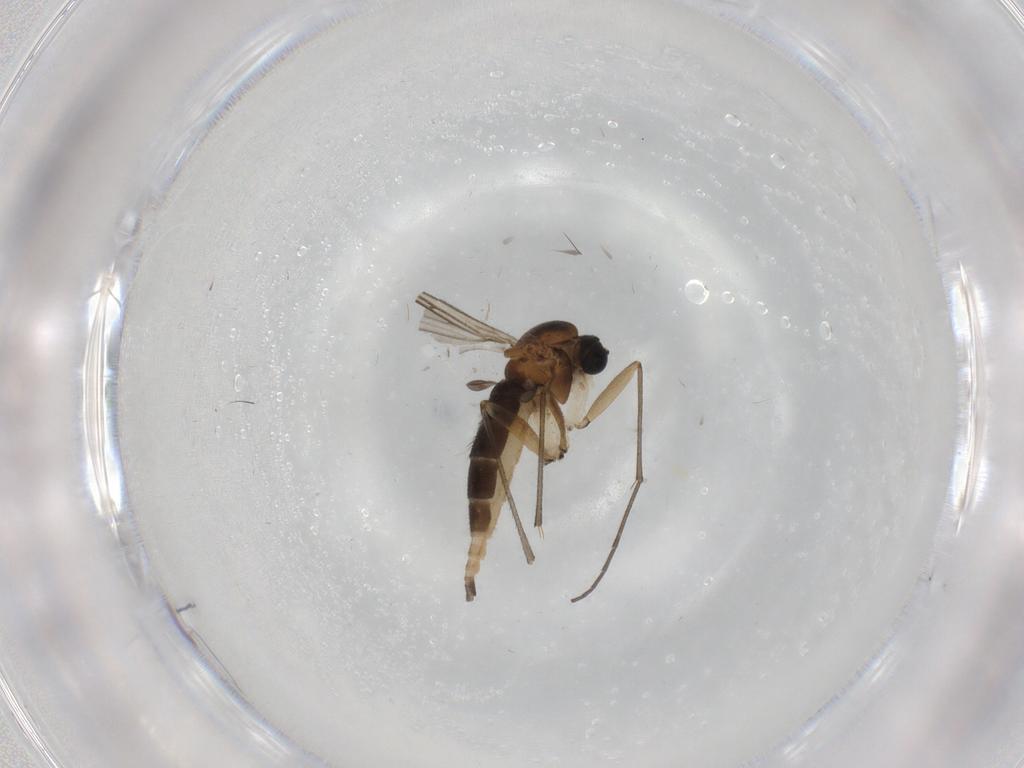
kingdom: Animalia
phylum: Arthropoda
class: Insecta
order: Diptera
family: Sciaridae
